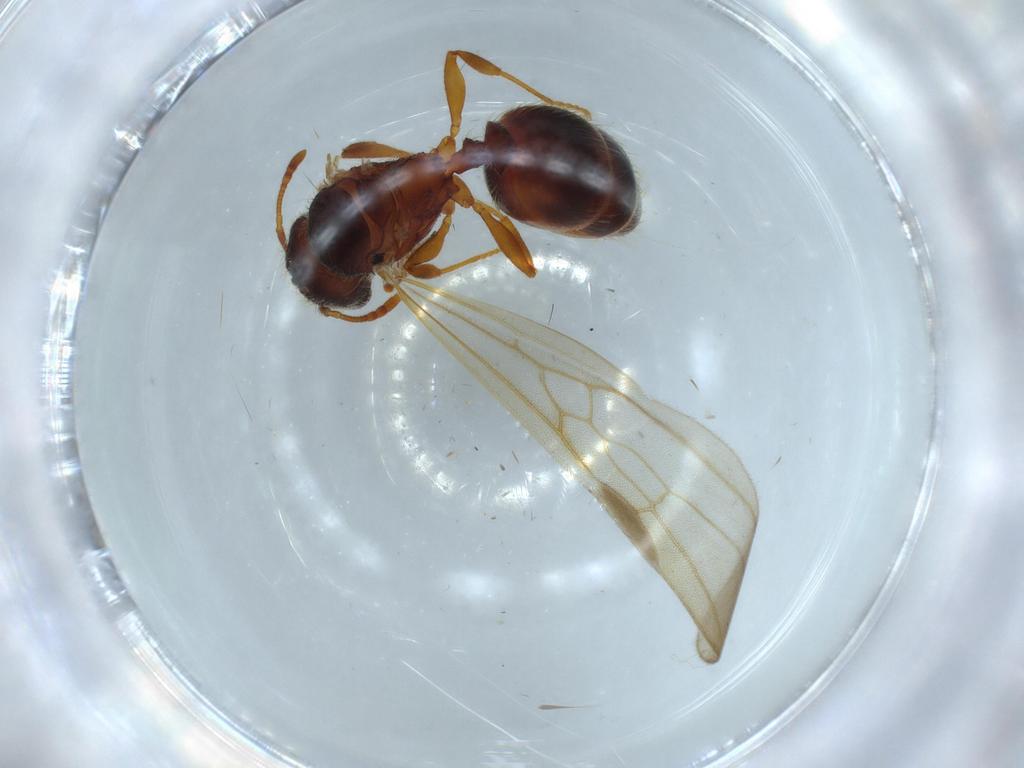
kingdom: Animalia
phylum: Arthropoda
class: Insecta
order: Hymenoptera
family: Formicidae
